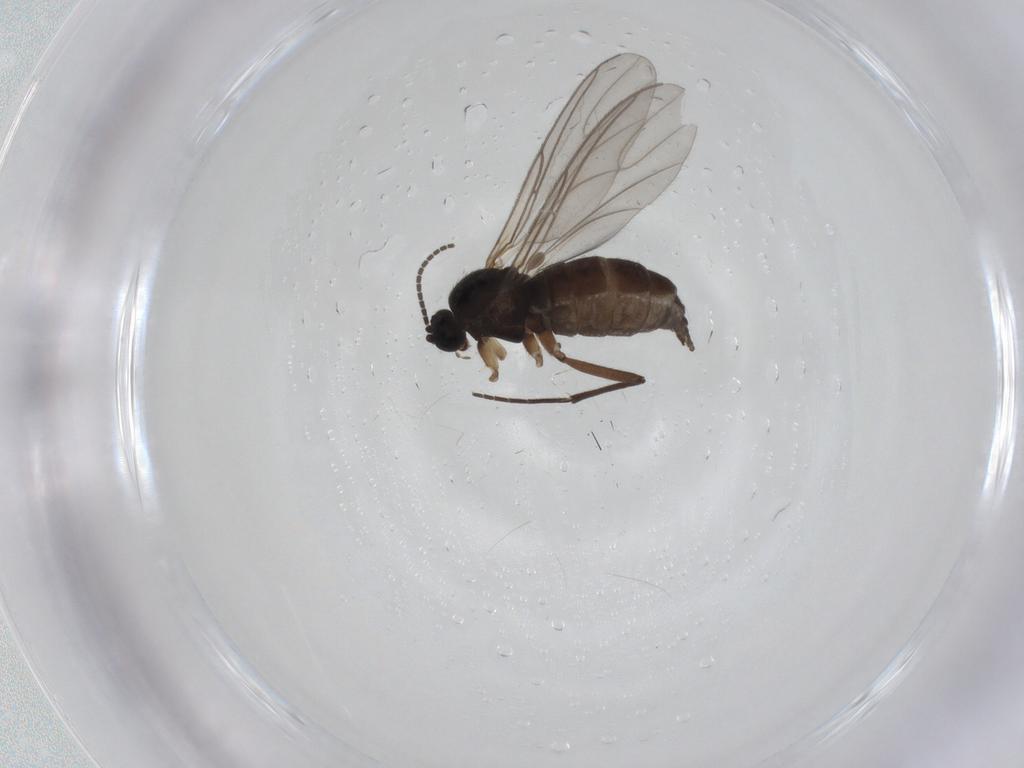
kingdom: Animalia
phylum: Arthropoda
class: Insecta
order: Diptera
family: Sciaridae
